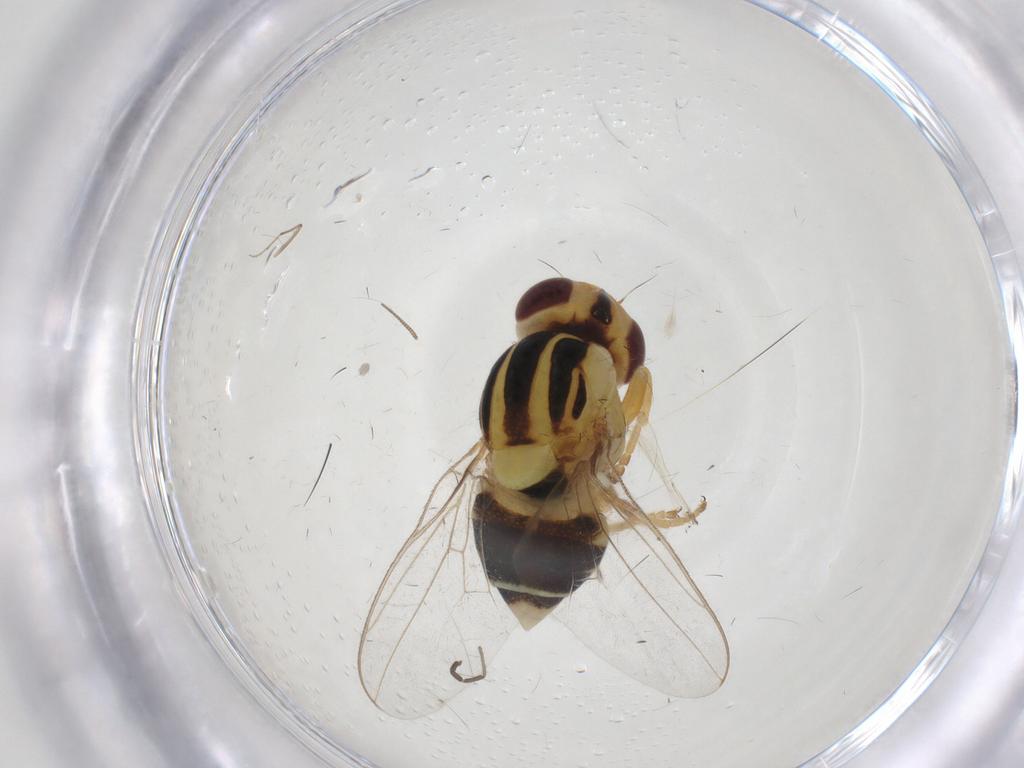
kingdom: Animalia
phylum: Arthropoda
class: Insecta
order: Diptera
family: Chloropidae
